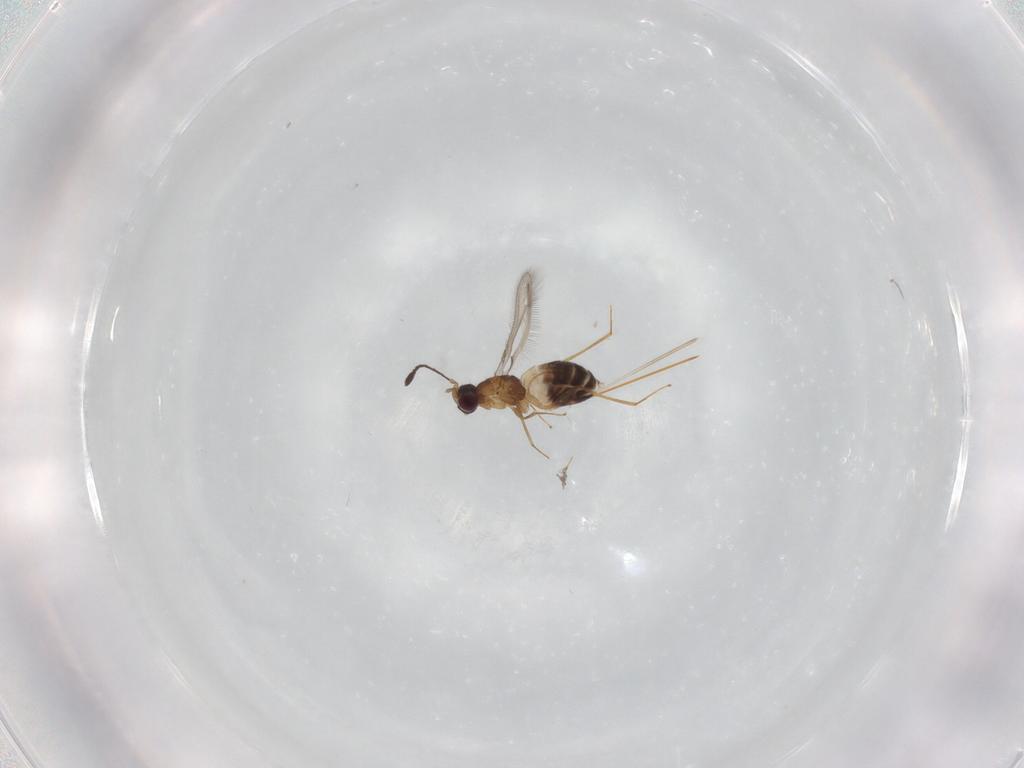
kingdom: Animalia
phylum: Arthropoda
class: Insecta
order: Hymenoptera
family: Mymaridae
